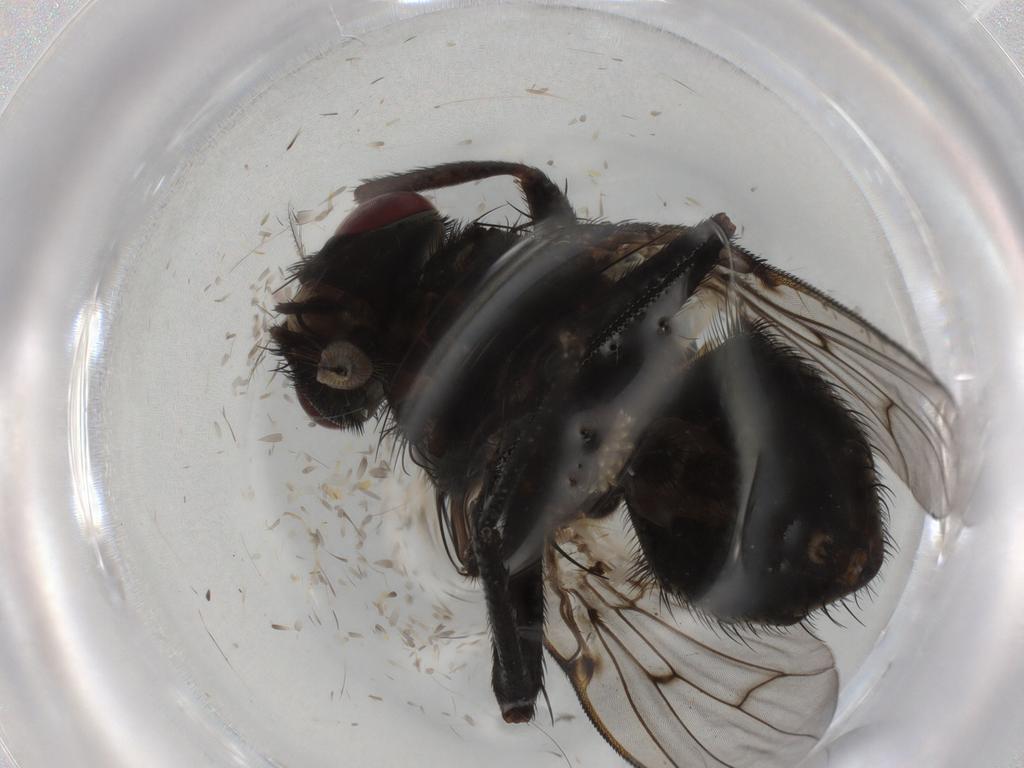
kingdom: Animalia
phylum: Arthropoda
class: Insecta
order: Diptera
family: Muscidae
